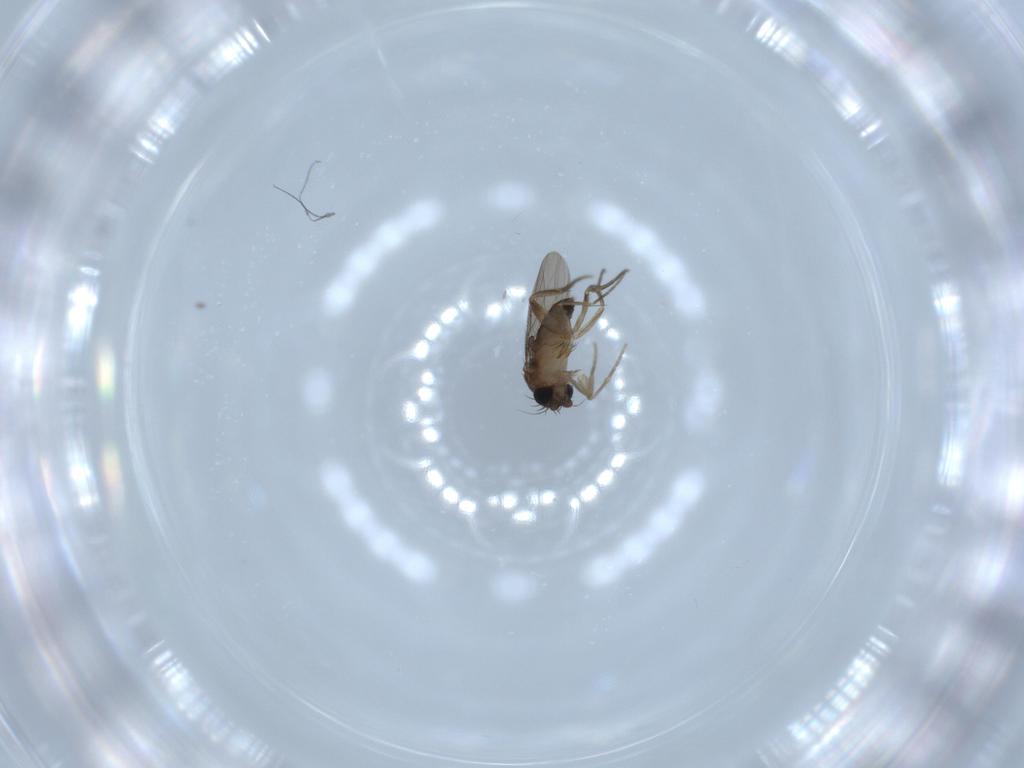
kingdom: Animalia
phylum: Arthropoda
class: Insecta
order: Diptera
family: Phoridae
